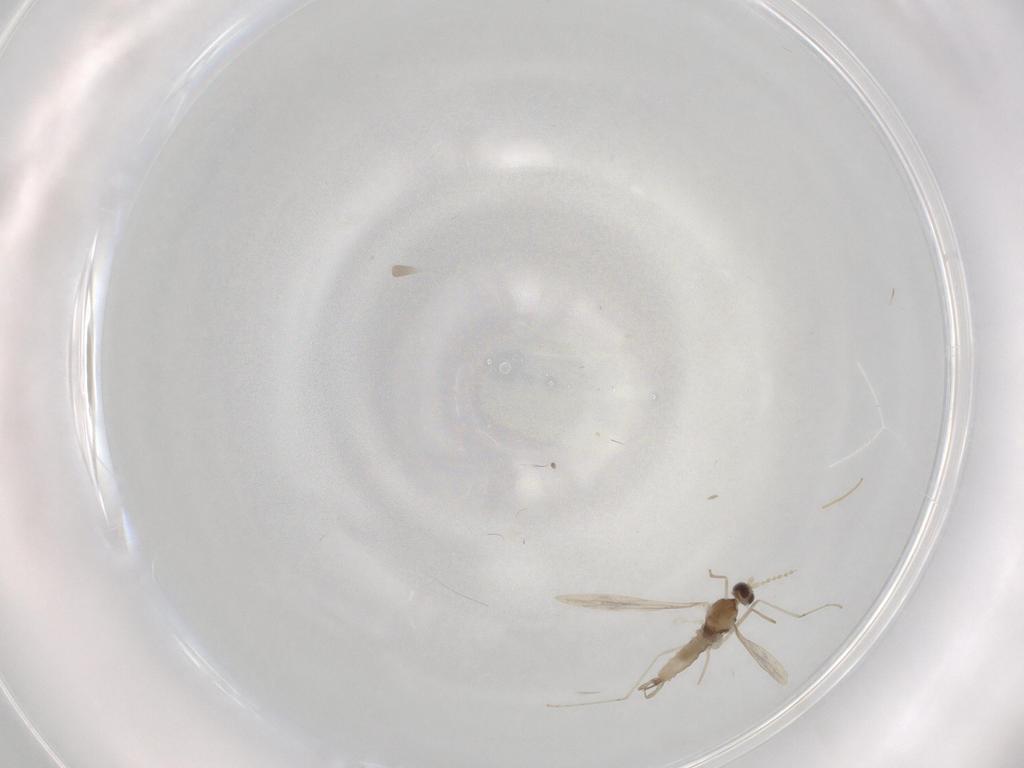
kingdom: Animalia
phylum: Arthropoda
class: Insecta
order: Diptera
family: Cecidomyiidae
